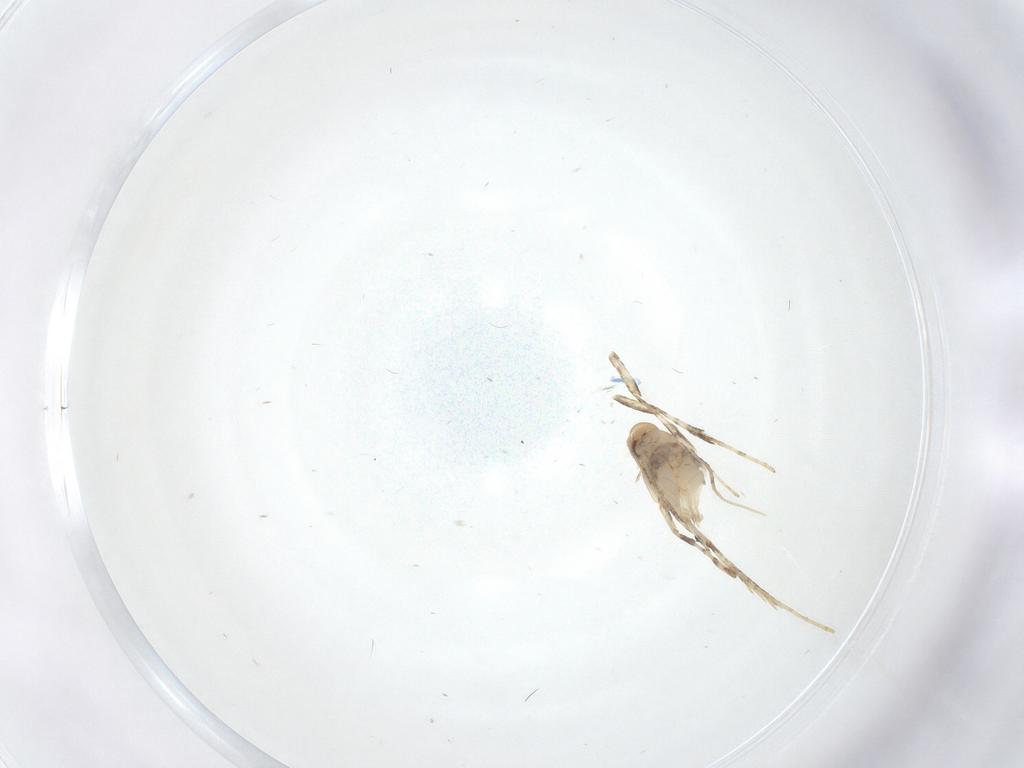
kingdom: Animalia
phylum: Arthropoda
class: Insecta
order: Lepidoptera
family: Gracillariidae
